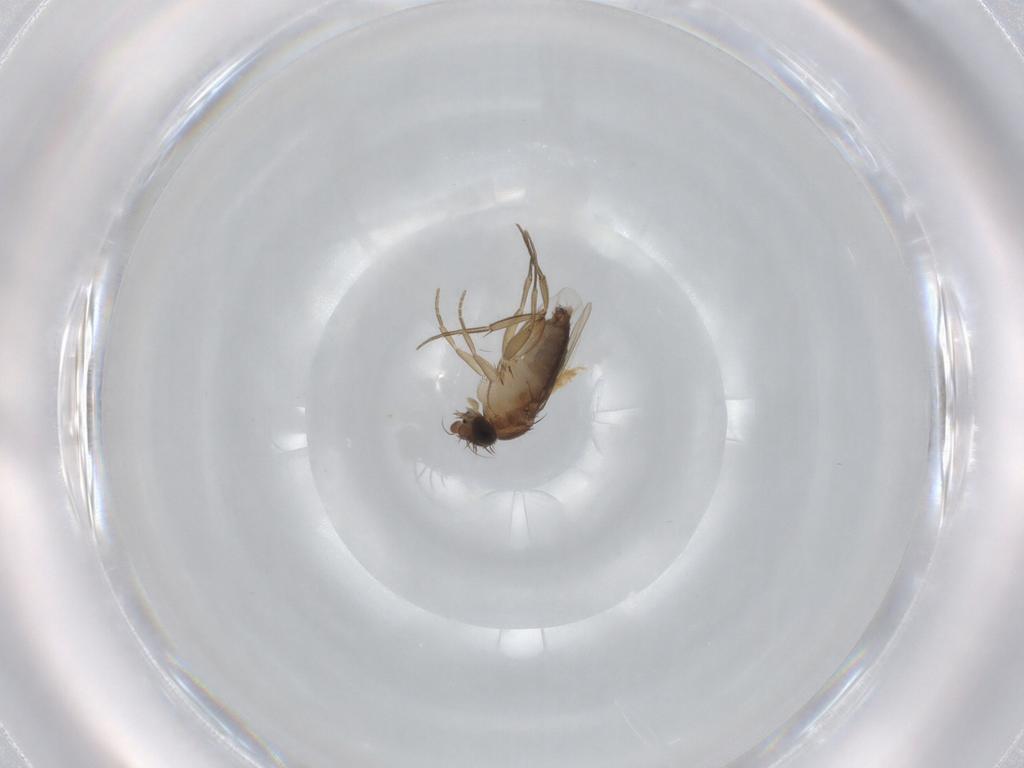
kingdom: Animalia
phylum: Arthropoda
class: Insecta
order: Diptera
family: Phoridae
